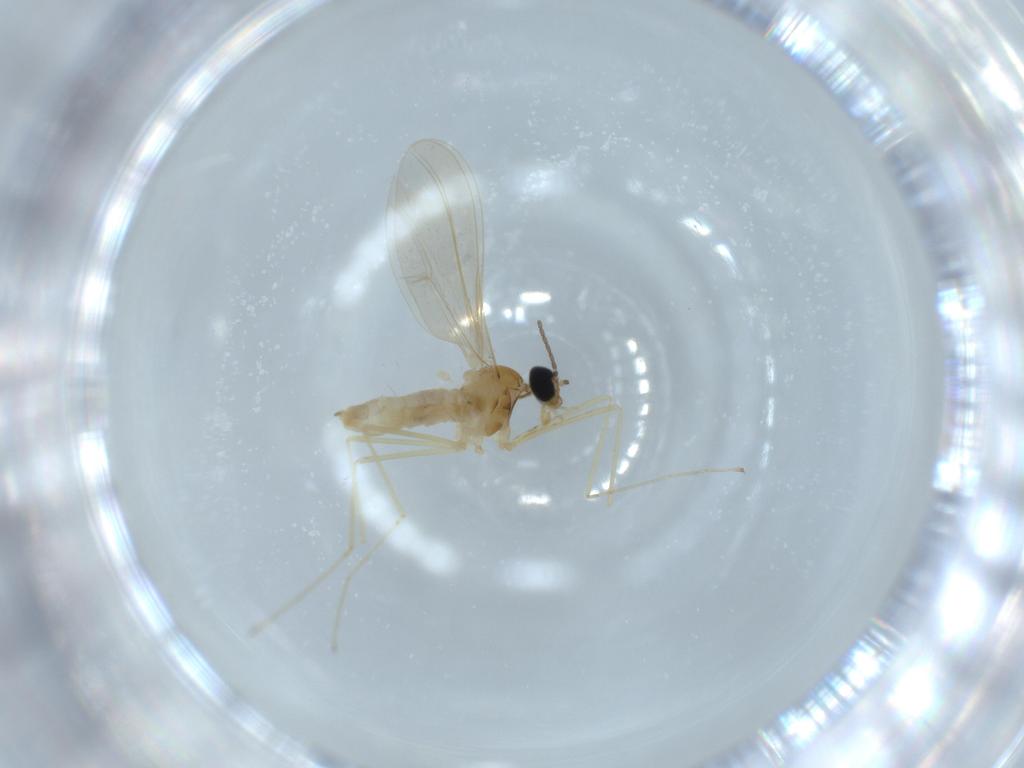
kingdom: Animalia
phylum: Arthropoda
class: Insecta
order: Diptera
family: Cecidomyiidae
